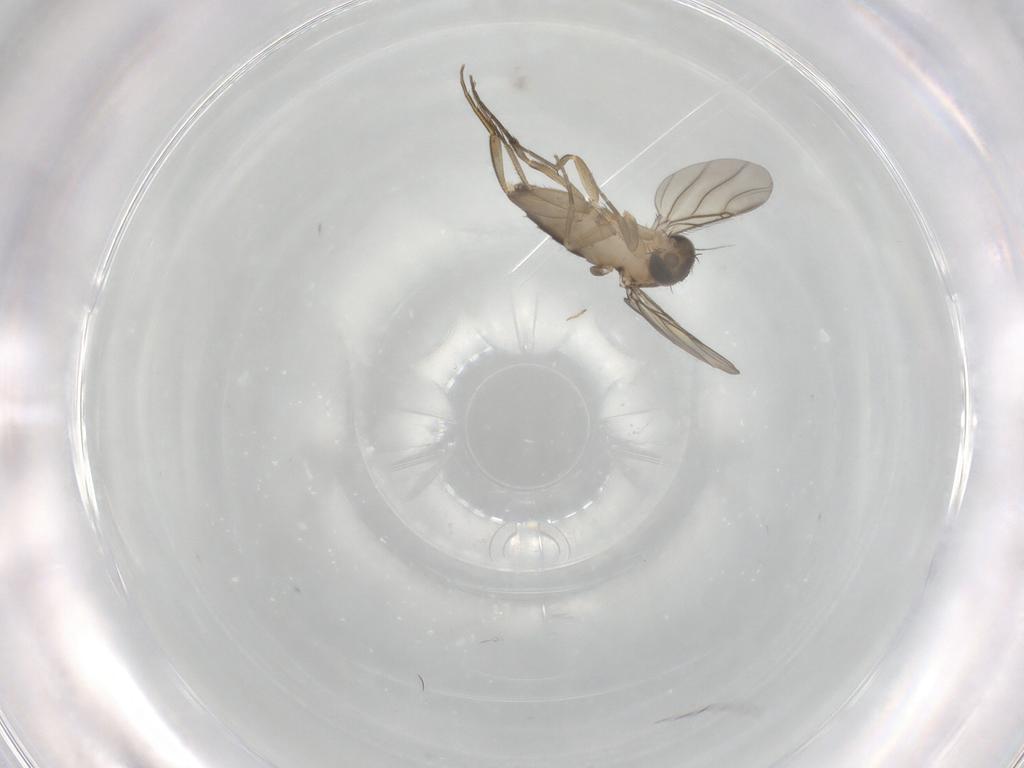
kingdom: Animalia
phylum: Arthropoda
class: Insecta
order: Diptera
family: Phoridae
